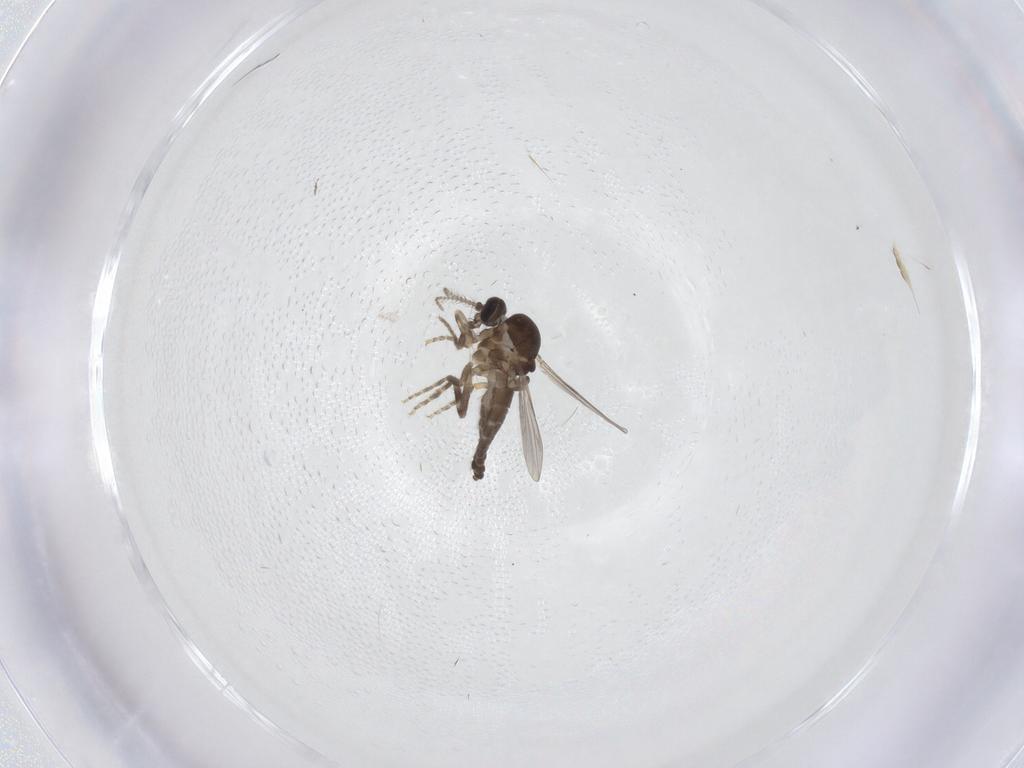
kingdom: Animalia
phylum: Arthropoda
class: Insecta
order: Diptera
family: Ceratopogonidae
